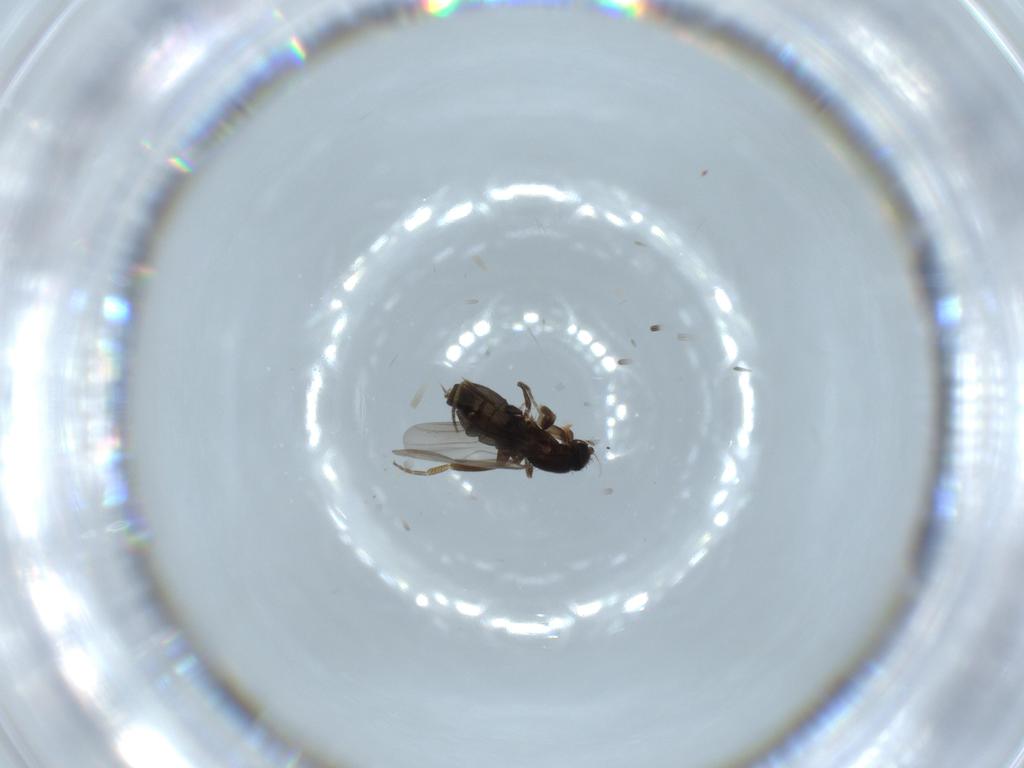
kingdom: Animalia
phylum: Arthropoda
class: Insecta
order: Diptera
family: Phoridae
